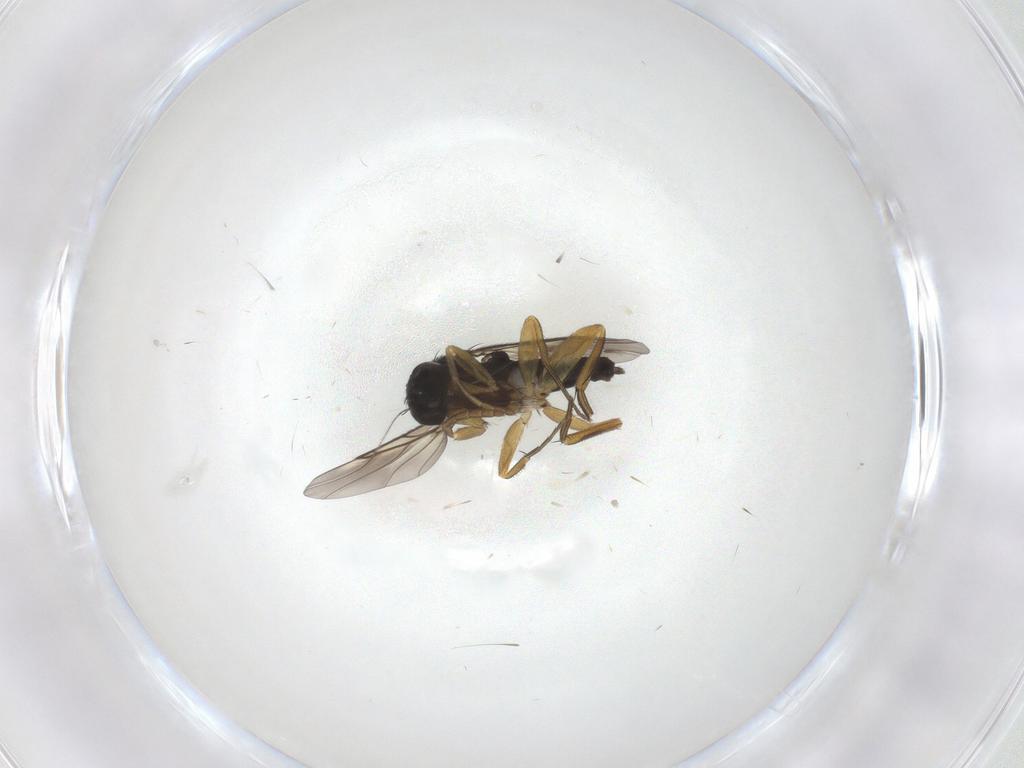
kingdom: Animalia
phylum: Arthropoda
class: Insecta
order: Diptera
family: Phoridae
